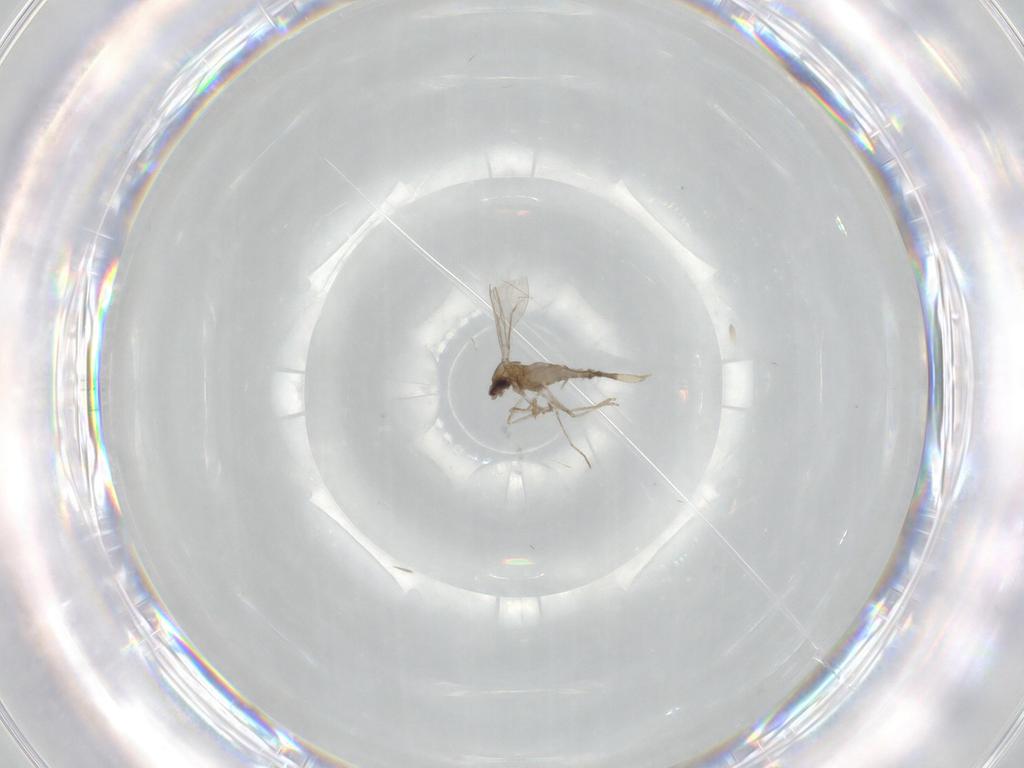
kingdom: Animalia
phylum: Arthropoda
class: Insecta
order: Diptera
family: Cecidomyiidae
